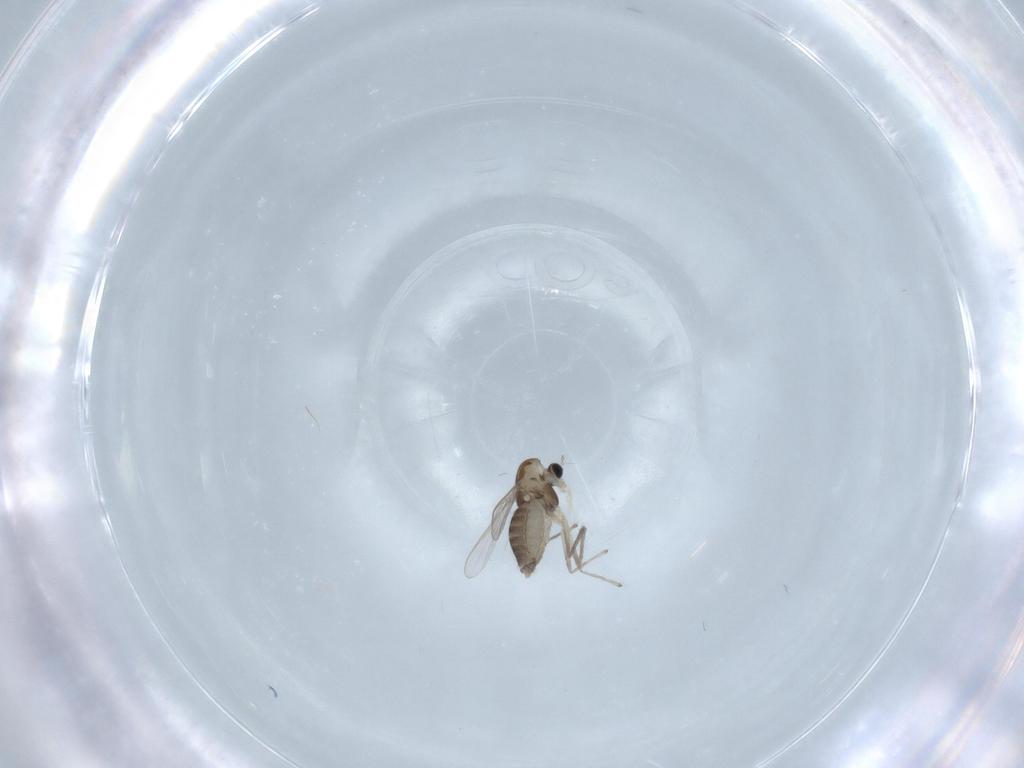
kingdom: Animalia
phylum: Arthropoda
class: Insecta
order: Diptera
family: Chironomidae
